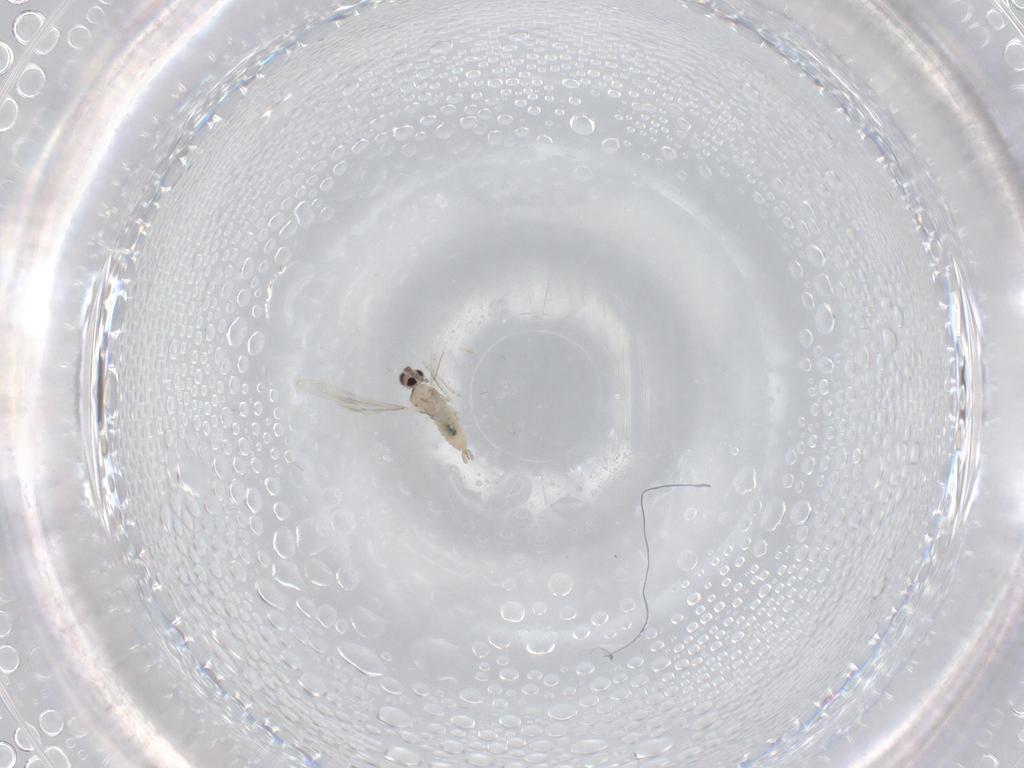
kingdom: Animalia
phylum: Arthropoda
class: Insecta
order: Diptera
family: Cecidomyiidae
